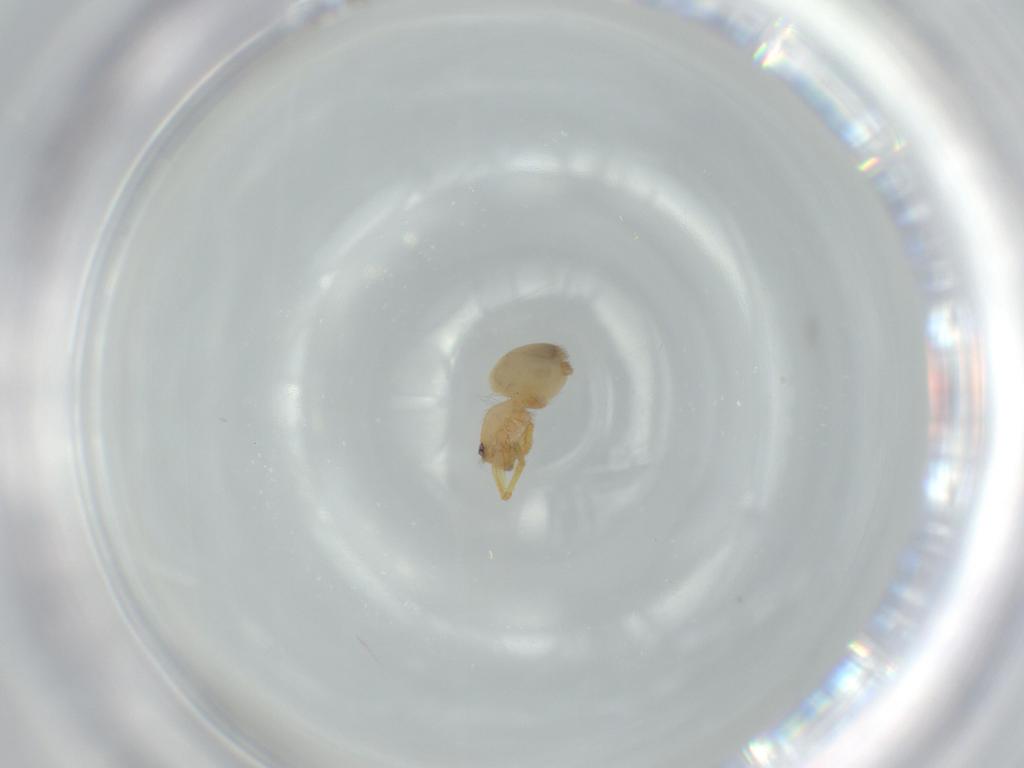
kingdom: Animalia
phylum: Arthropoda
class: Arachnida
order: Araneae
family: Oonopidae
